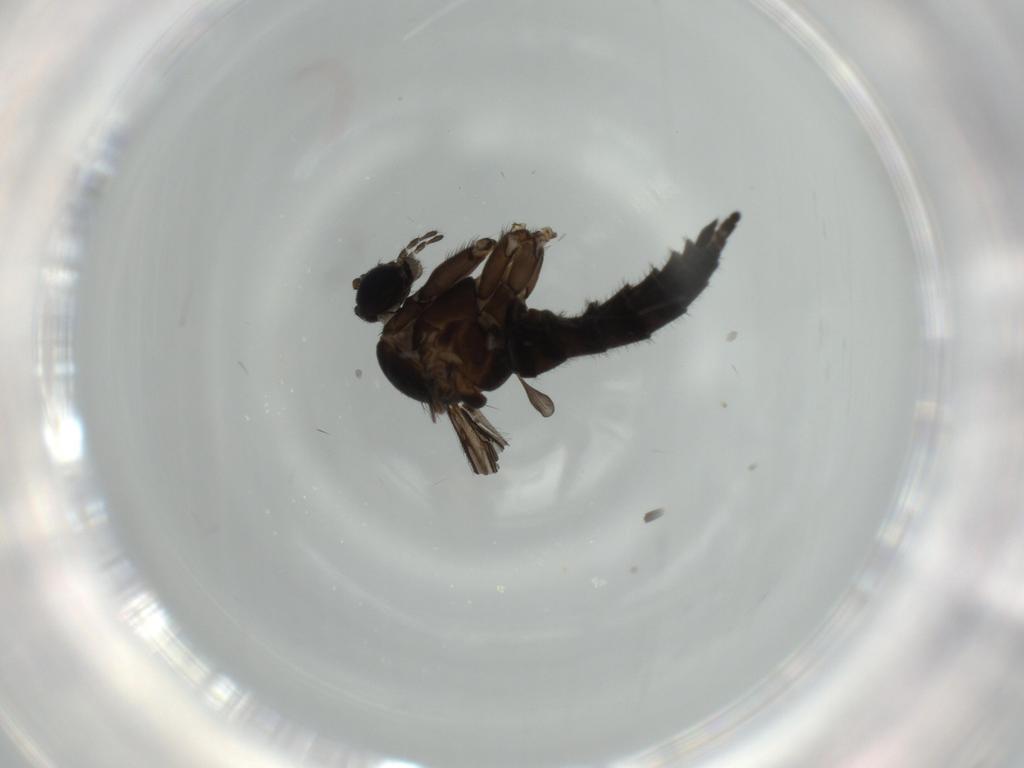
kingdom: Animalia
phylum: Arthropoda
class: Insecta
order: Diptera
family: Sciaridae
